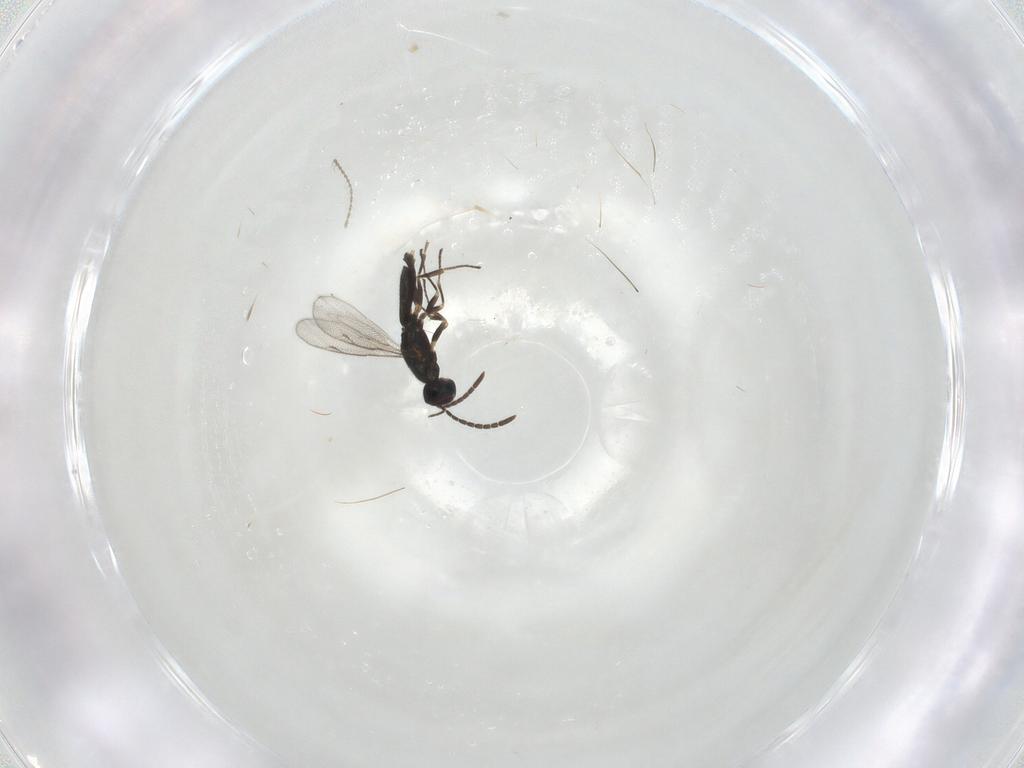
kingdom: Animalia
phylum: Arthropoda
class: Insecta
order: Hymenoptera
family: Eupelmidae
